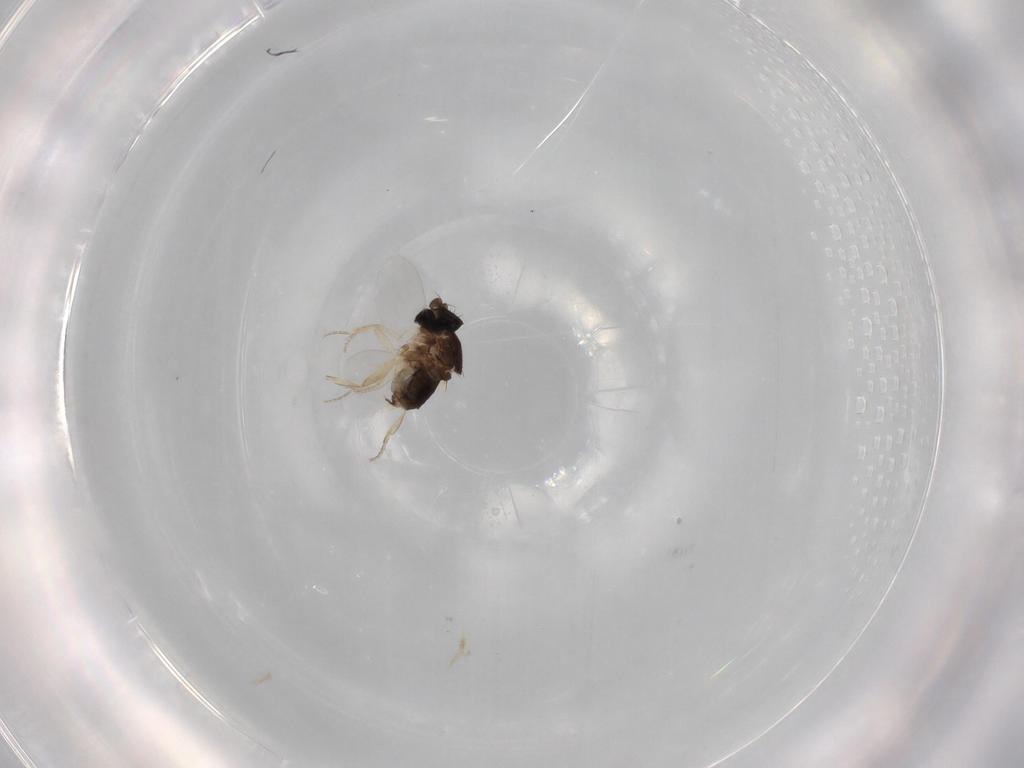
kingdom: Animalia
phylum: Arthropoda
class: Insecta
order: Diptera
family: Phoridae
